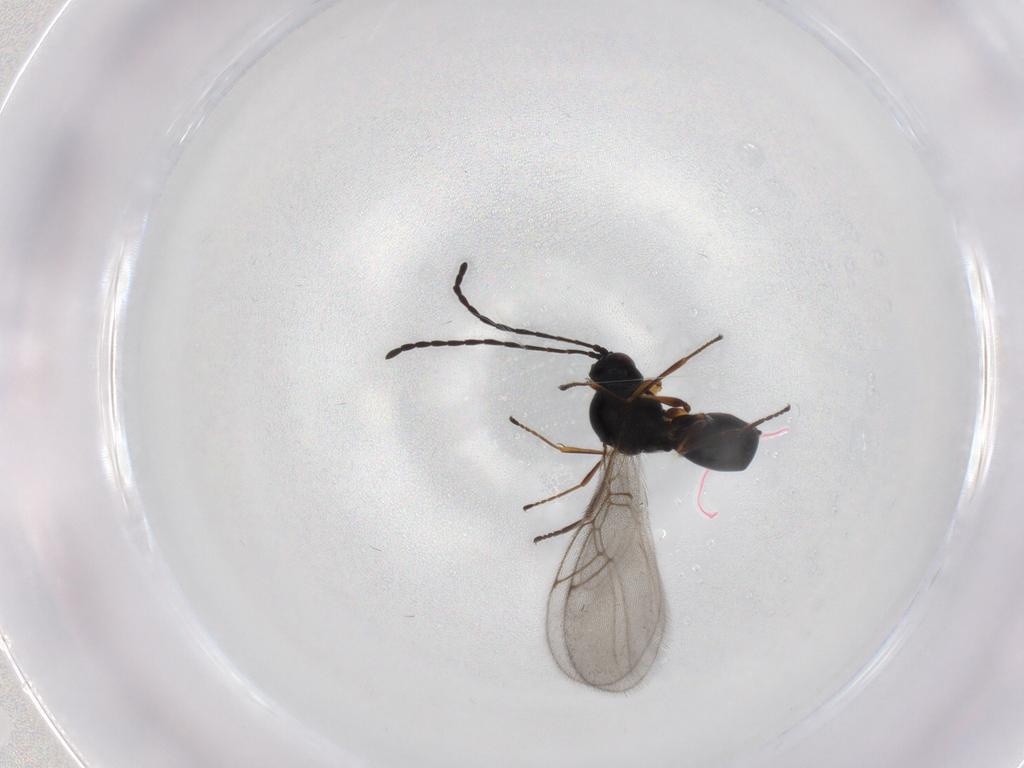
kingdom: Animalia
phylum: Arthropoda
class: Insecta
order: Hymenoptera
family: Figitidae
